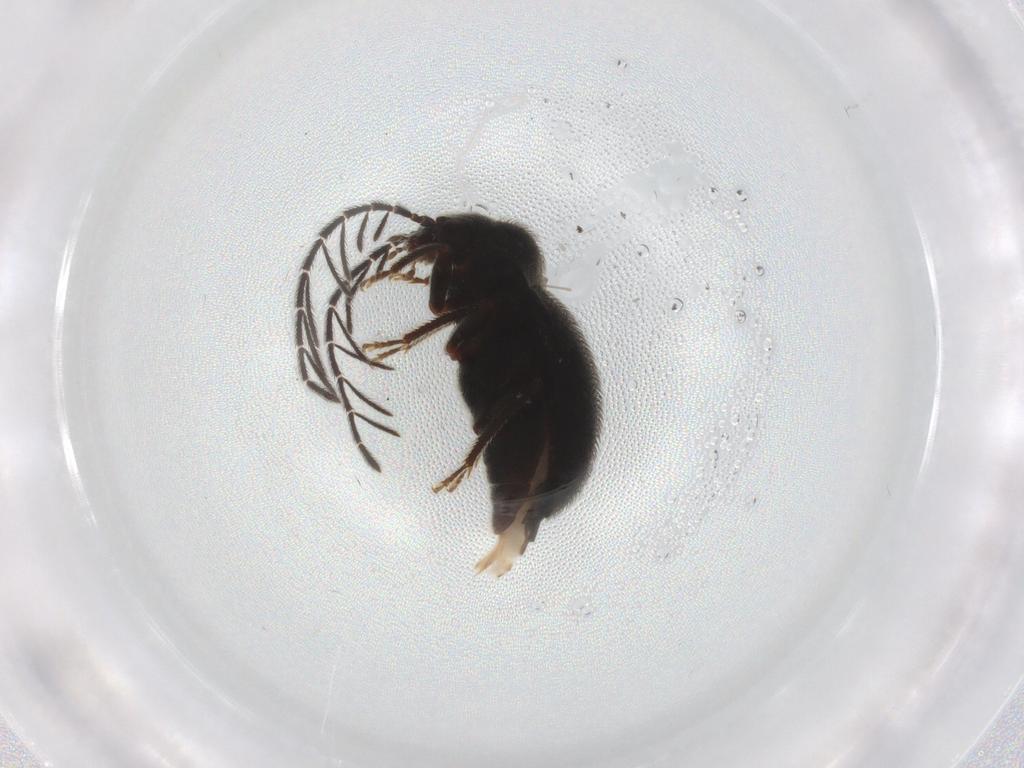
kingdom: Animalia
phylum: Arthropoda
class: Insecta
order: Coleoptera
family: Ptilodactylidae
